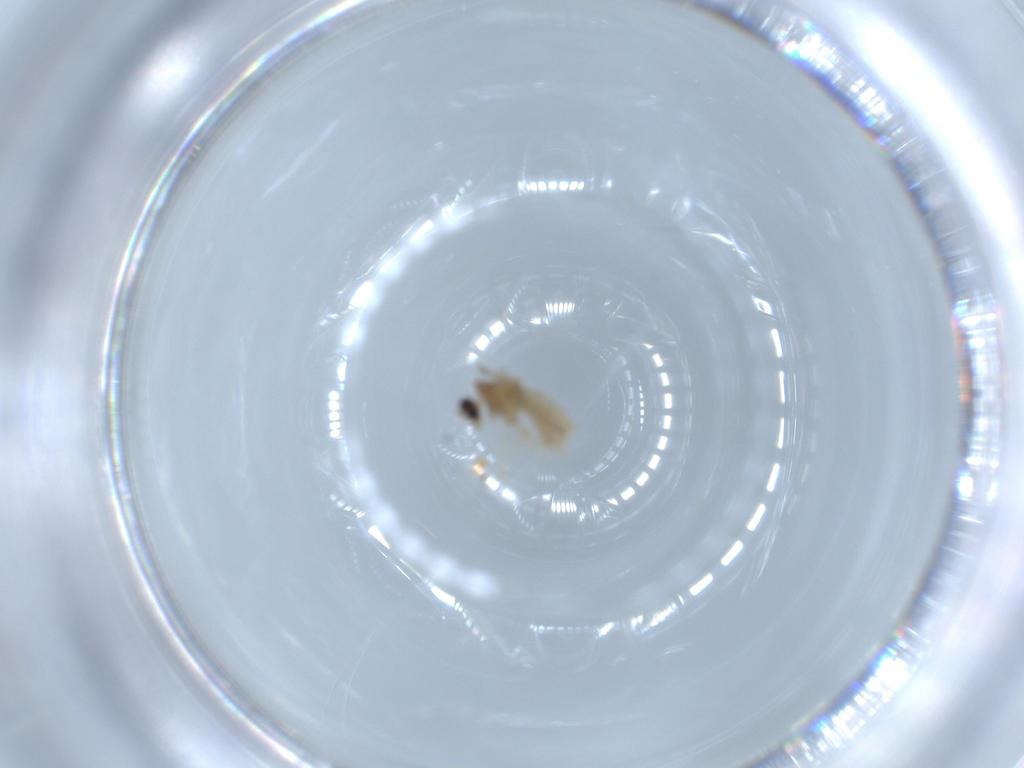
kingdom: Animalia
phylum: Arthropoda
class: Insecta
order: Diptera
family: Cecidomyiidae
